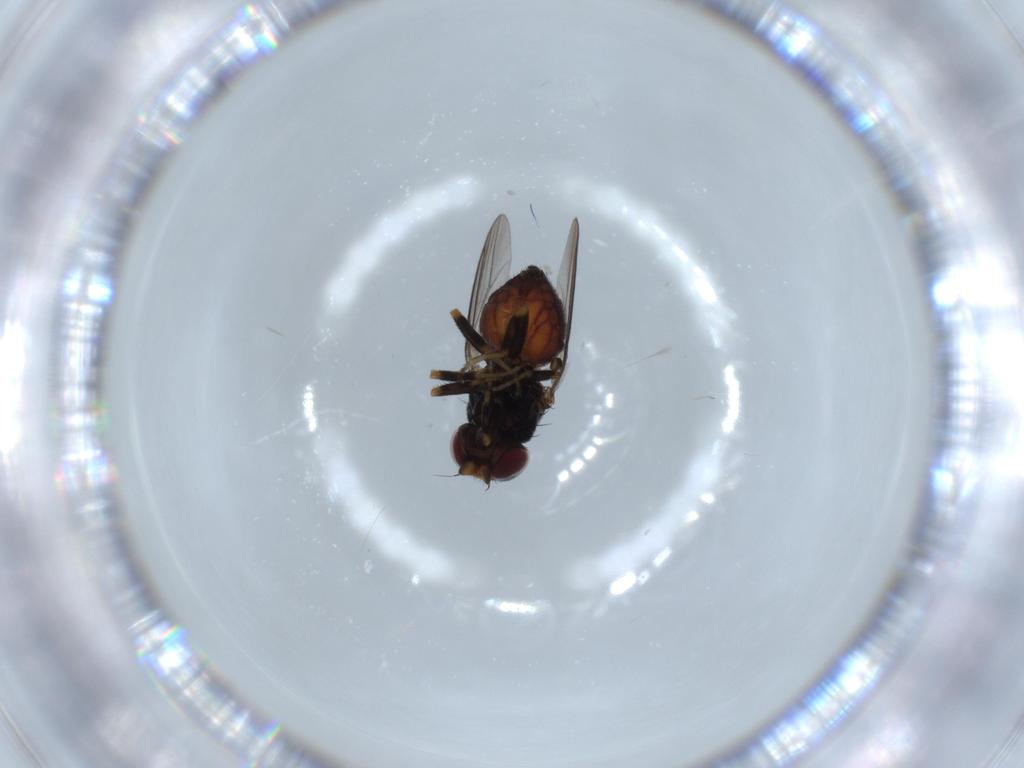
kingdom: Animalia
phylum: Arthropoda
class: Insecta
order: Diptera
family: Chloropidae
